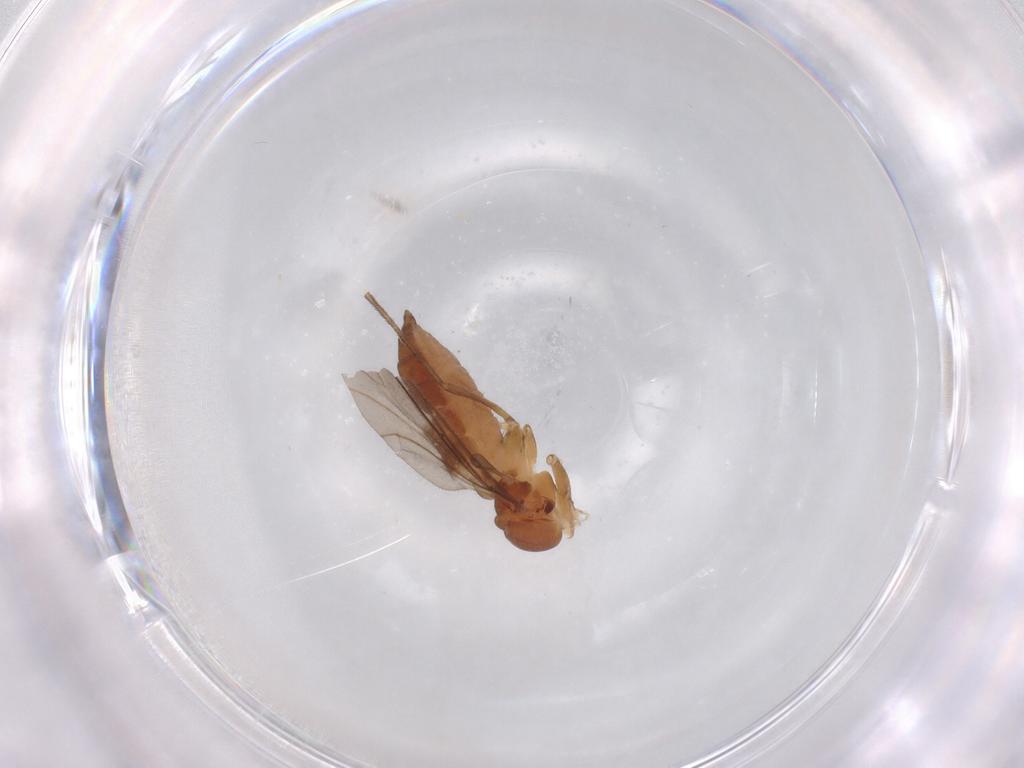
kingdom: Animalia
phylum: Arthropoda
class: Insecta
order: Diptera
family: Sciaridae
